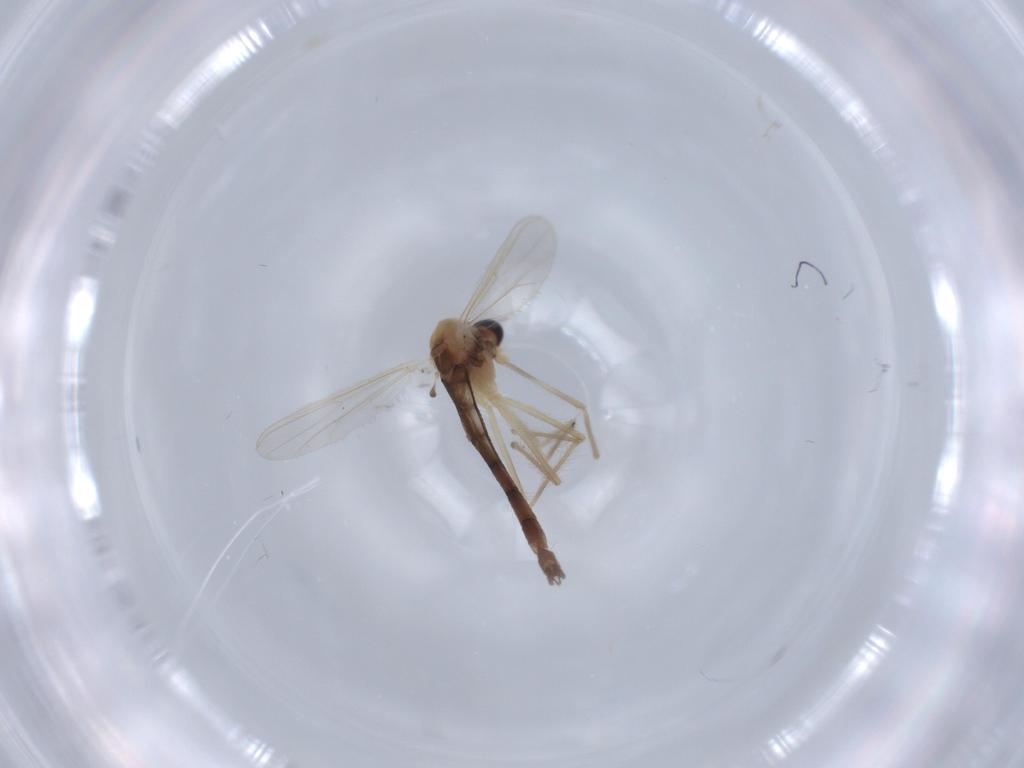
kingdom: Animalia
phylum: Arthropoda
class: Insecta
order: Diptera
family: Chironomidae
